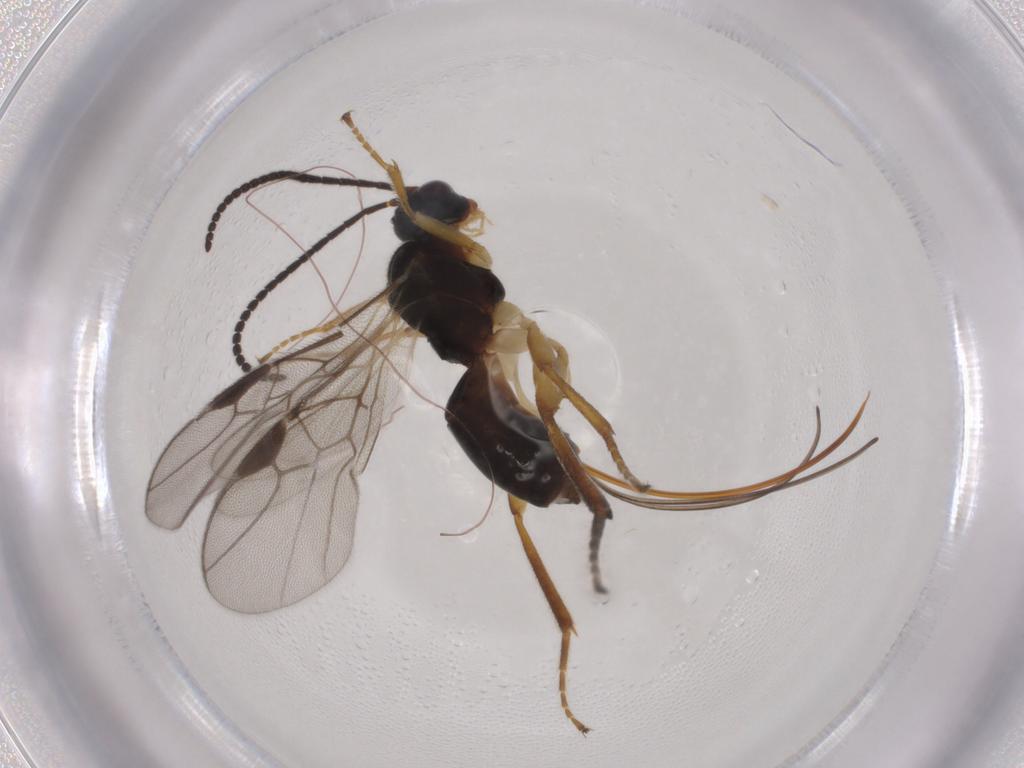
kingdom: Animalia
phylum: Arthropoda
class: Insecta
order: Hymenoptera
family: Braconidae
